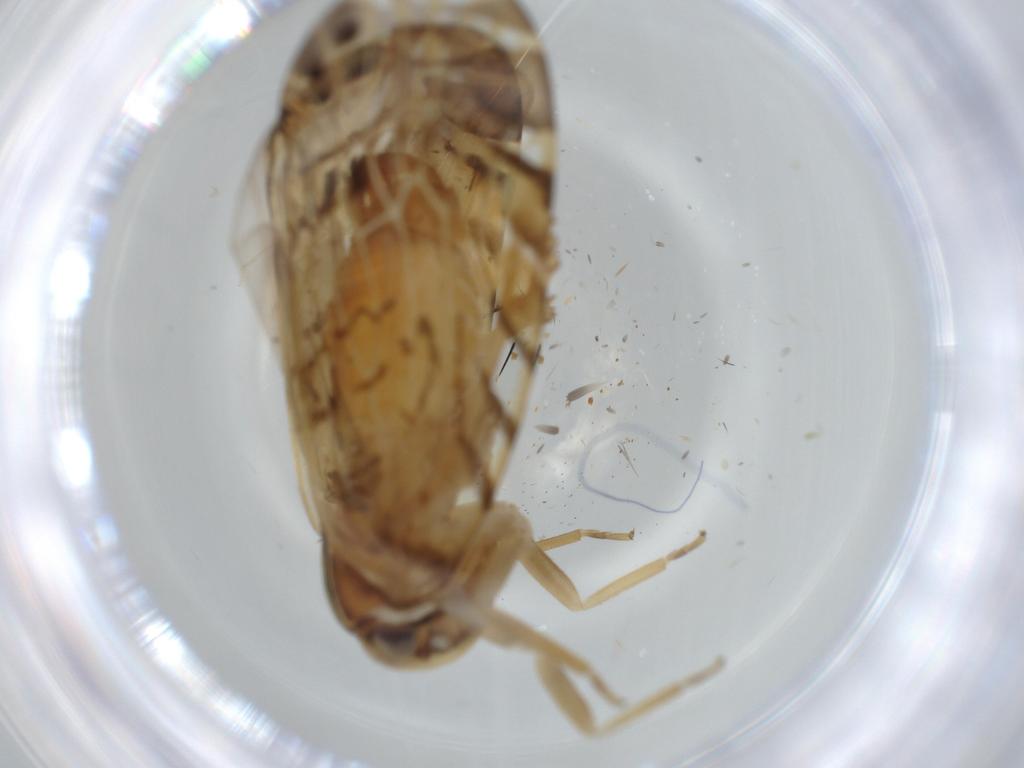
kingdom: Animalia
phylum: Arthropoda
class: Insecta
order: Hemiptera
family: Cixiidae
